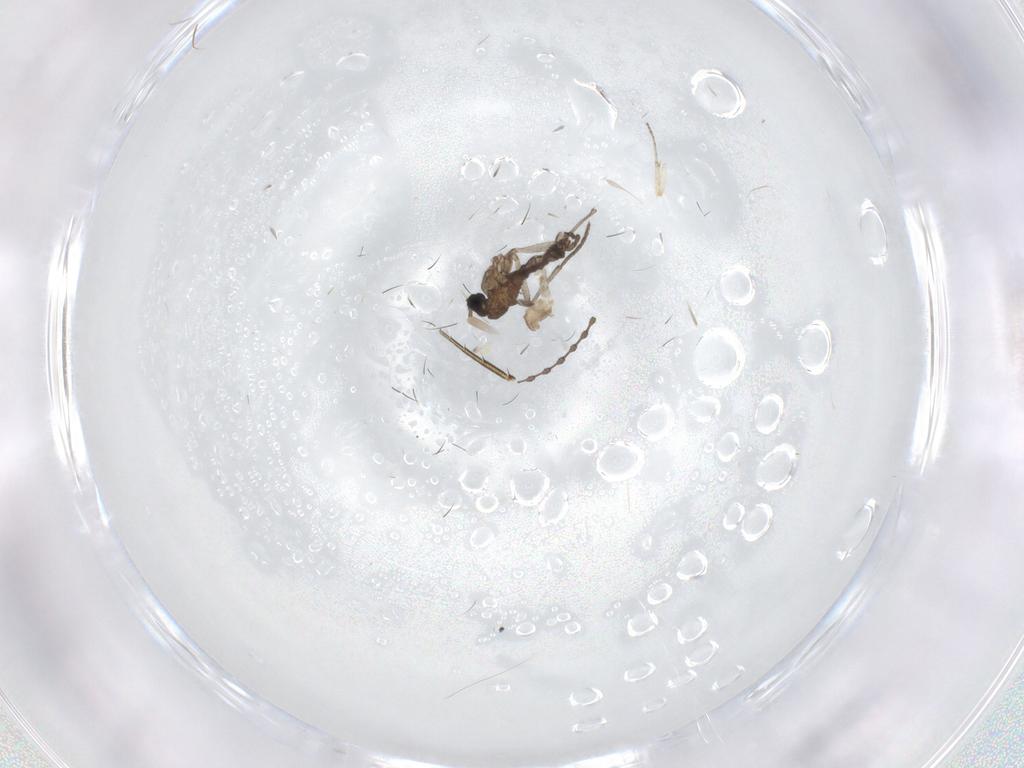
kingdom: Animalia
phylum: Arthropoda
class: Insecta
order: Diptera
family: Sciaridae
